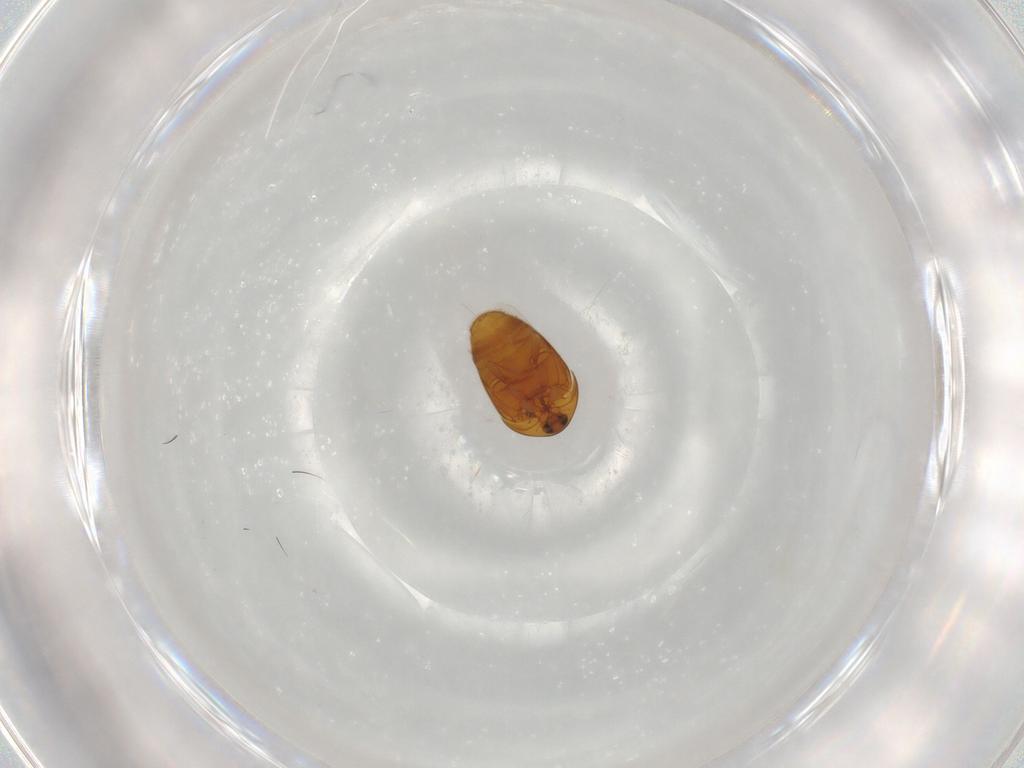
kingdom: Animalia
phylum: Arthropoda
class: Insecta
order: Coleoptera
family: Corylophidae
